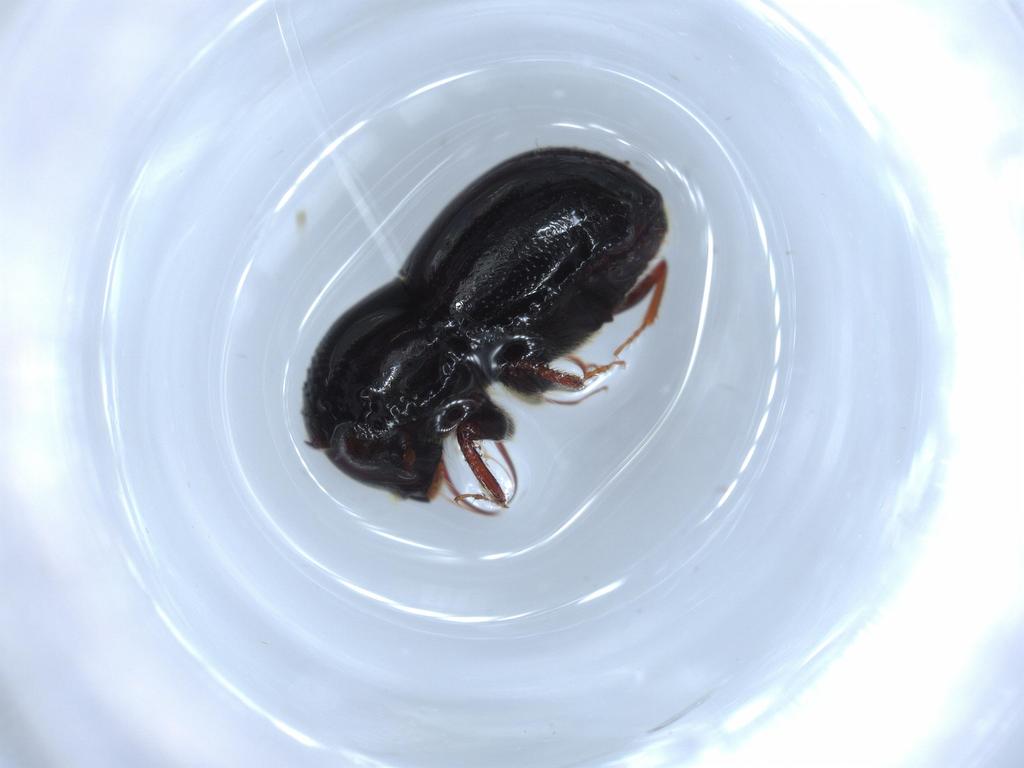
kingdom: Animalia
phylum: Arthropoda
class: Insecta
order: Coleoptera
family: Curculionidae
